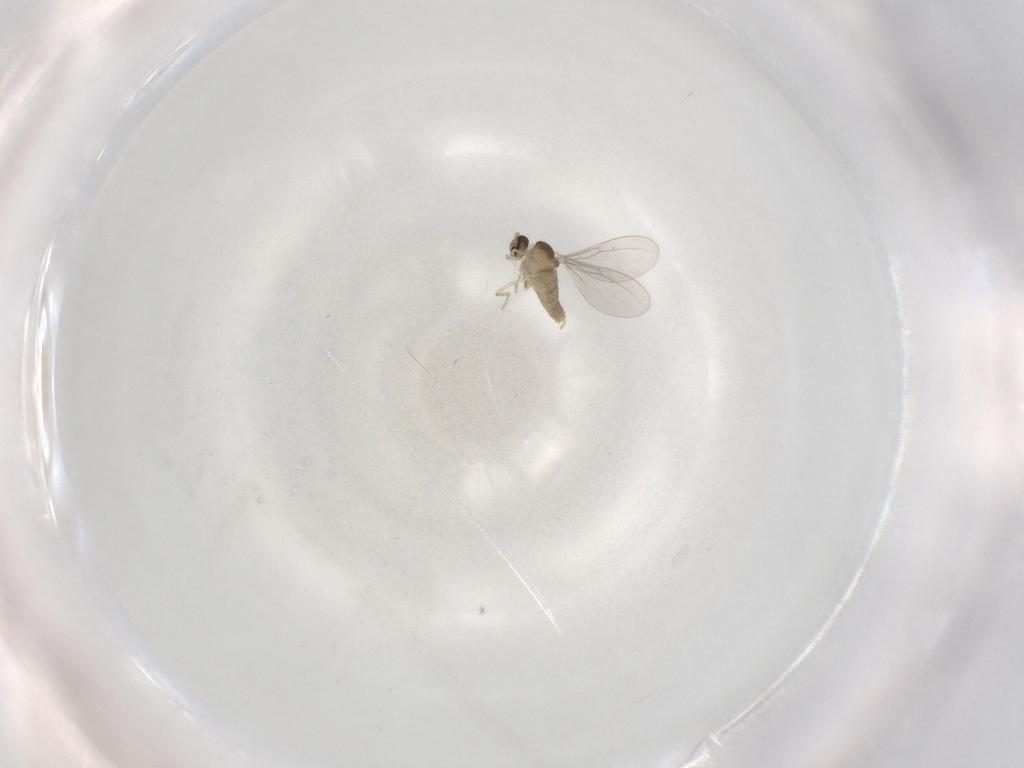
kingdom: Animalia
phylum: Arthropoda
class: Insecta
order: Diptera
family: Cecidomyiidae
